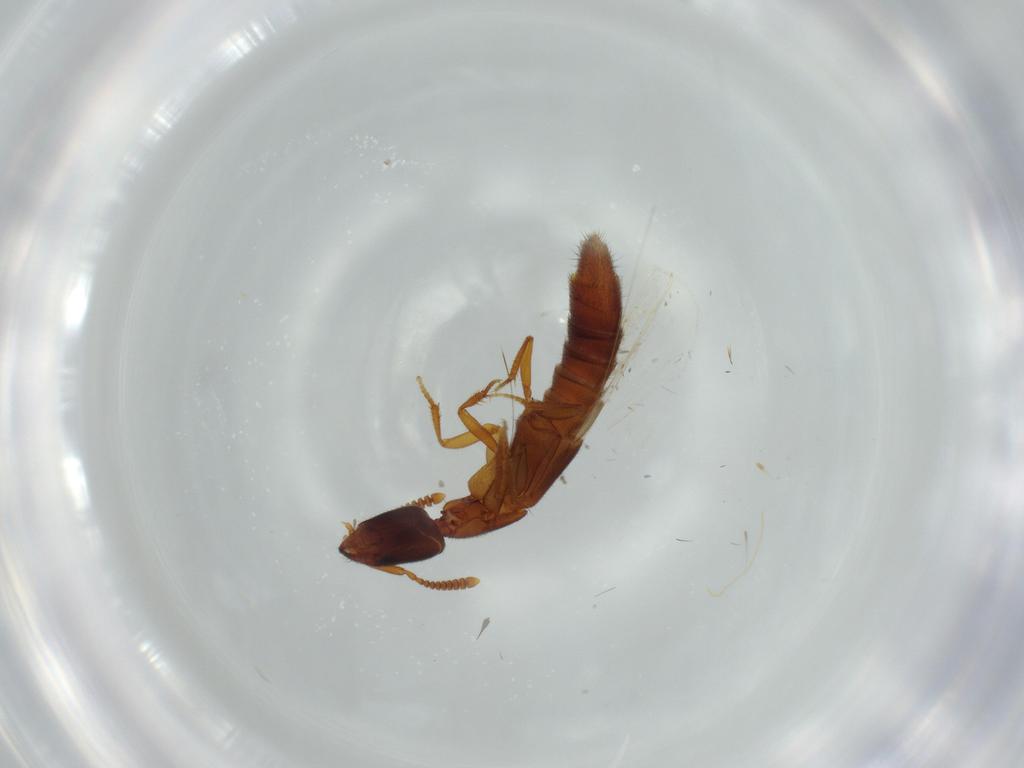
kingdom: Animalia
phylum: Arthropoda
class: Insecta
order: Coleoptera
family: Staphylinidae
